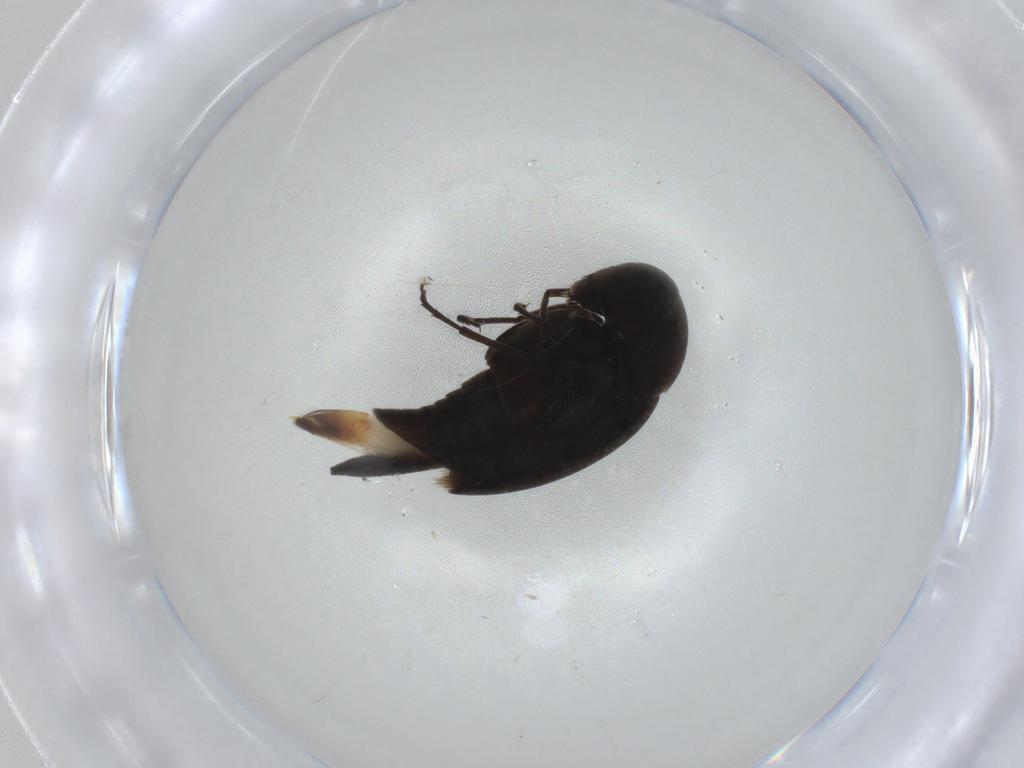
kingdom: Animalia
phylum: Arthropoda
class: Insecta
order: Coleoptera
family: Mordellidae
